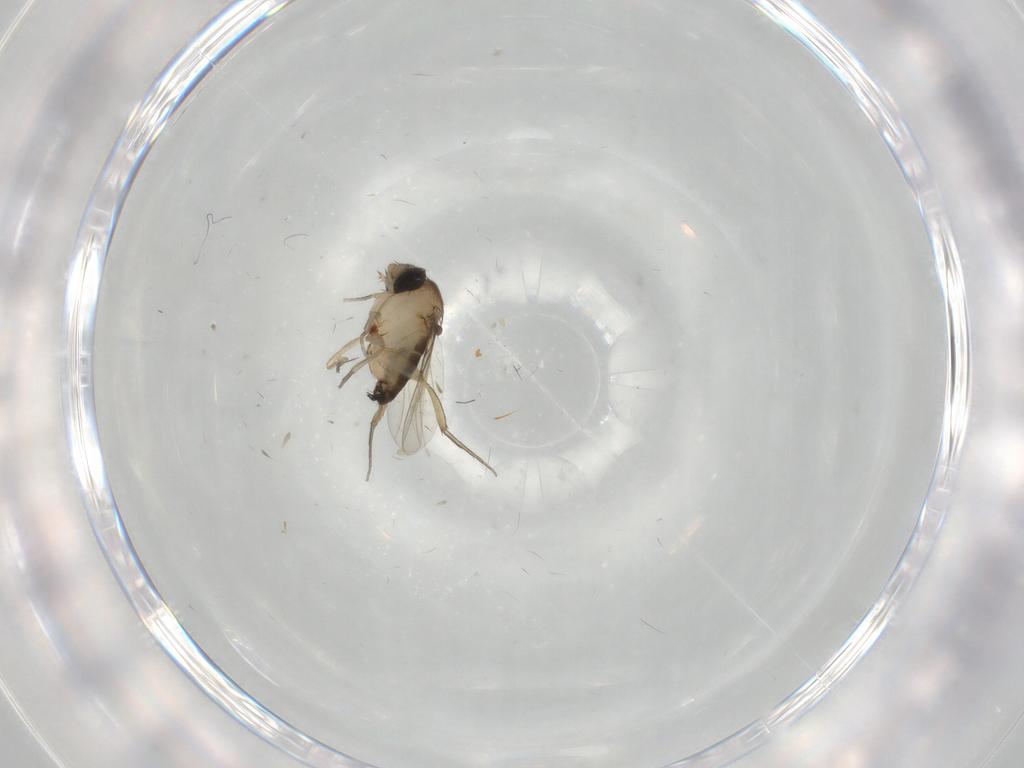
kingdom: Animalia
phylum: Arthropoda
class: Insecta
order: Diptera
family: Phoridae
